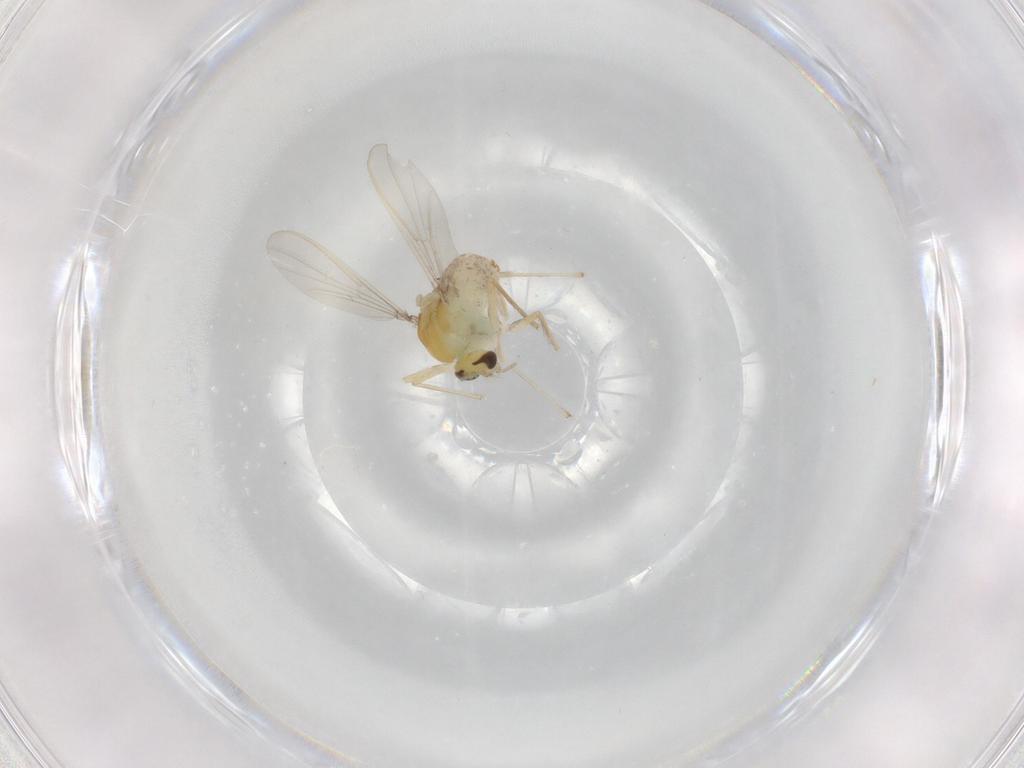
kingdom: Animalia
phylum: Arthropoda
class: Insecta
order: Diptera
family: Chironomidae
